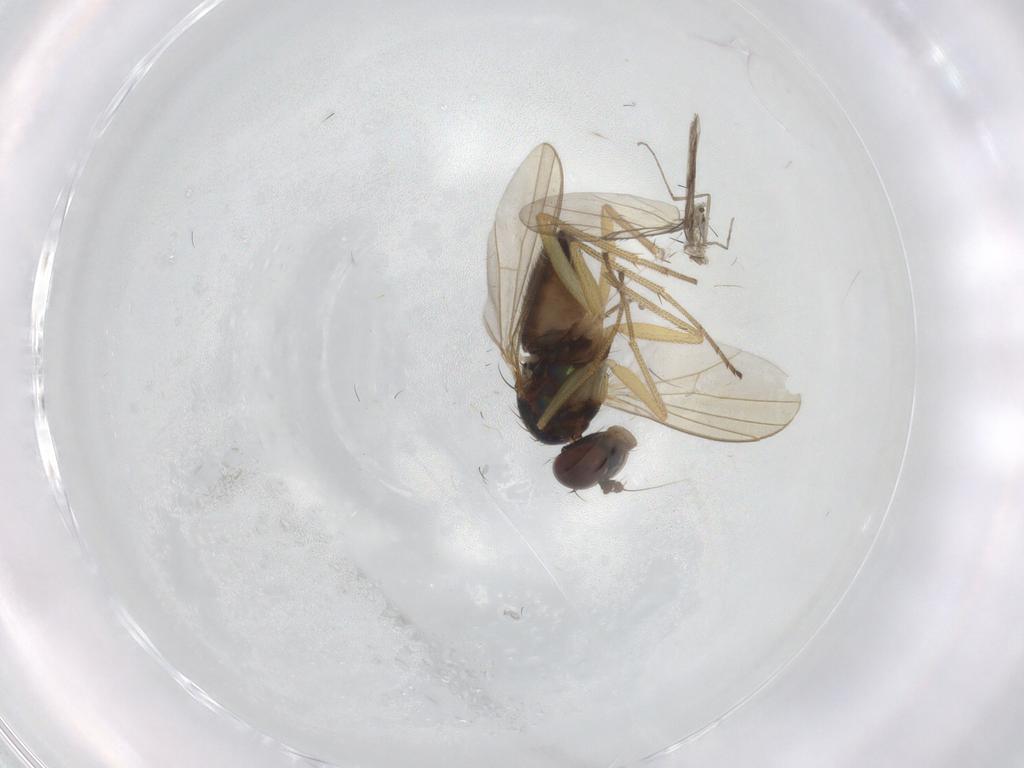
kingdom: Animalia
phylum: Arthropoda
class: Insecta
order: Diptera
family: Dolichopodidae
